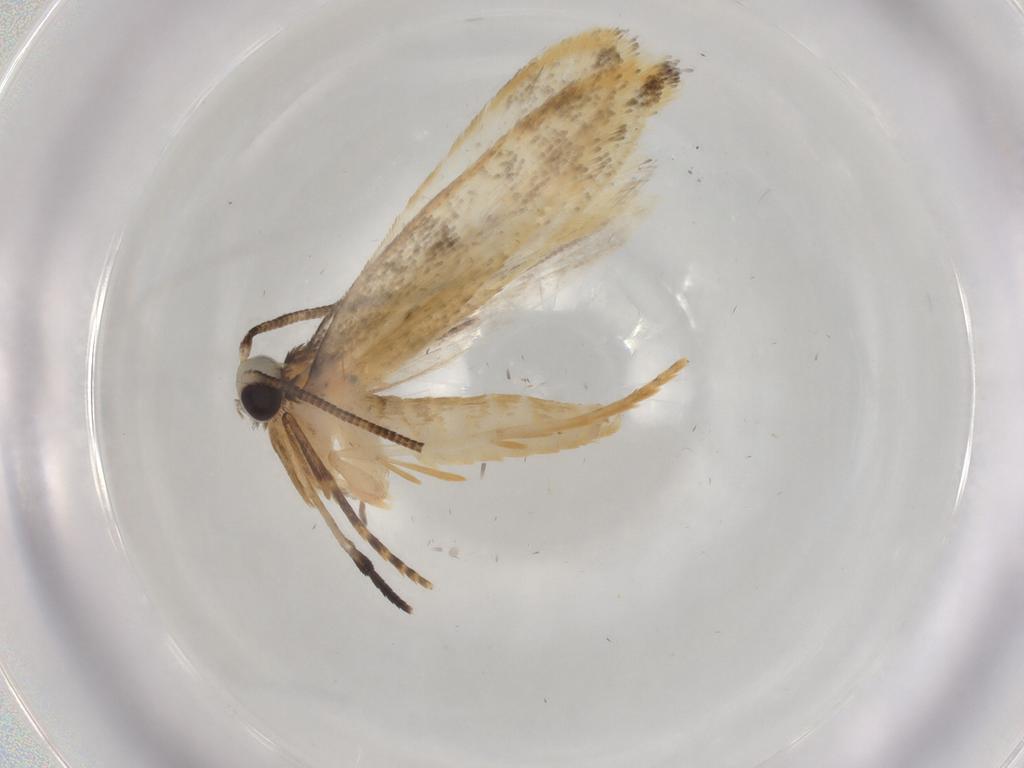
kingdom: Animalia
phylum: Arthropoda
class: Insecta
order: Lepidoptera
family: Tineidae
